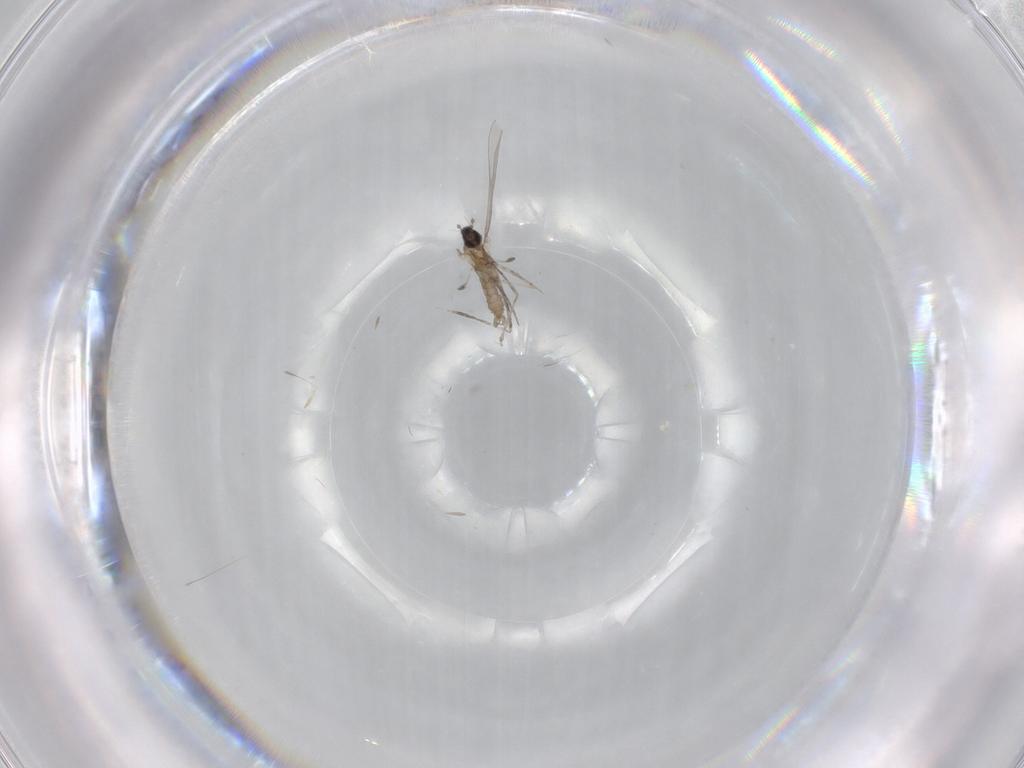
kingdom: Animalia
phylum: Arthropoda
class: Insecta
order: Diptera
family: Cecidomyiidae
